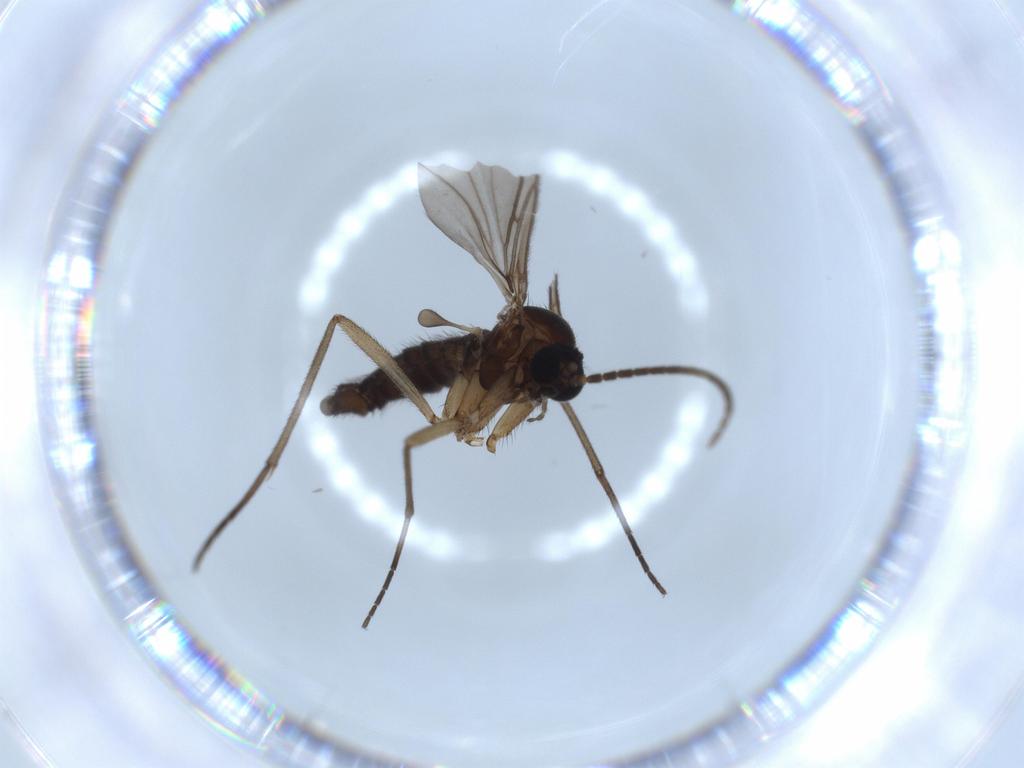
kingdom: Animalia
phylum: Arthropoda
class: Insecta
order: Diptera
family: Sciaridae
